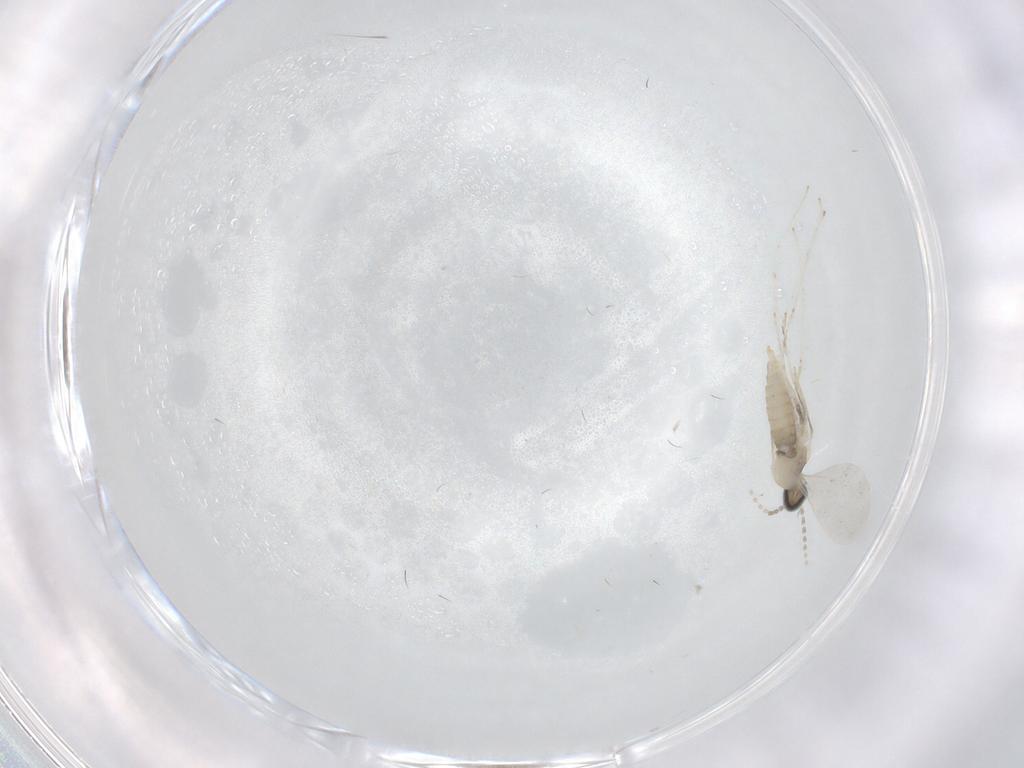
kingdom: Animalia
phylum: Arthropoda
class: Insecta
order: Diptera
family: Cecidomyiidae
